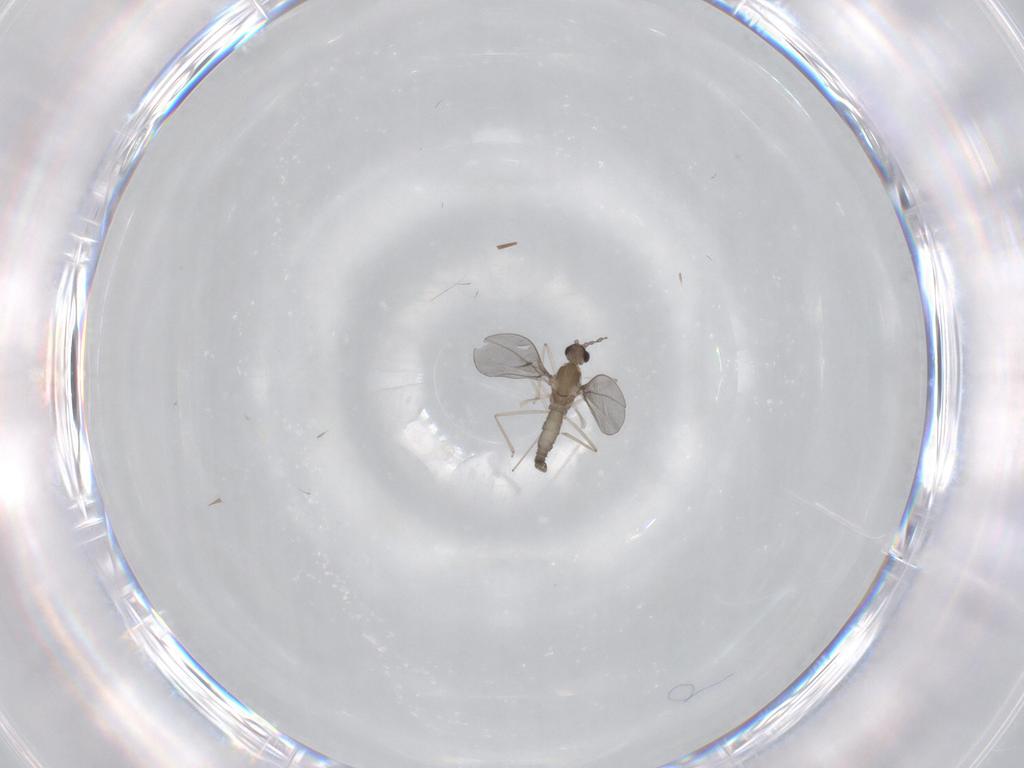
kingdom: Animalia
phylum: Arthropoda
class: Insecta
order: Diptera
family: Cecidomyiidae
